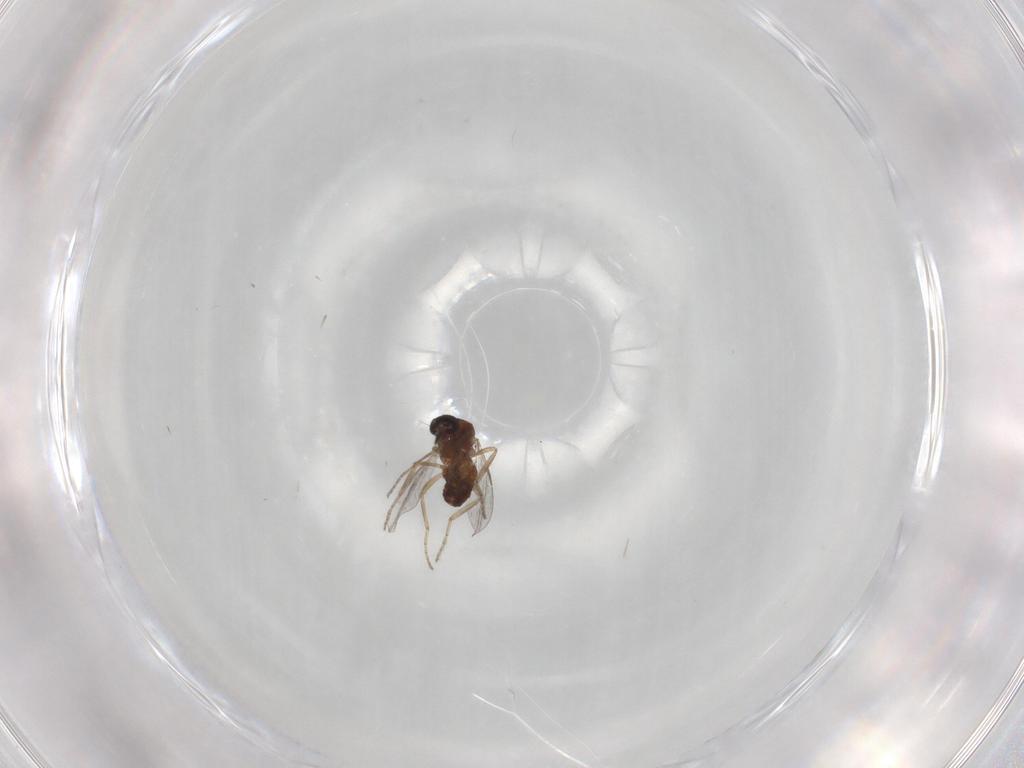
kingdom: Animalia
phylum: Arthropoda
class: Insecta
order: Diptera
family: Ceratopogonidae
